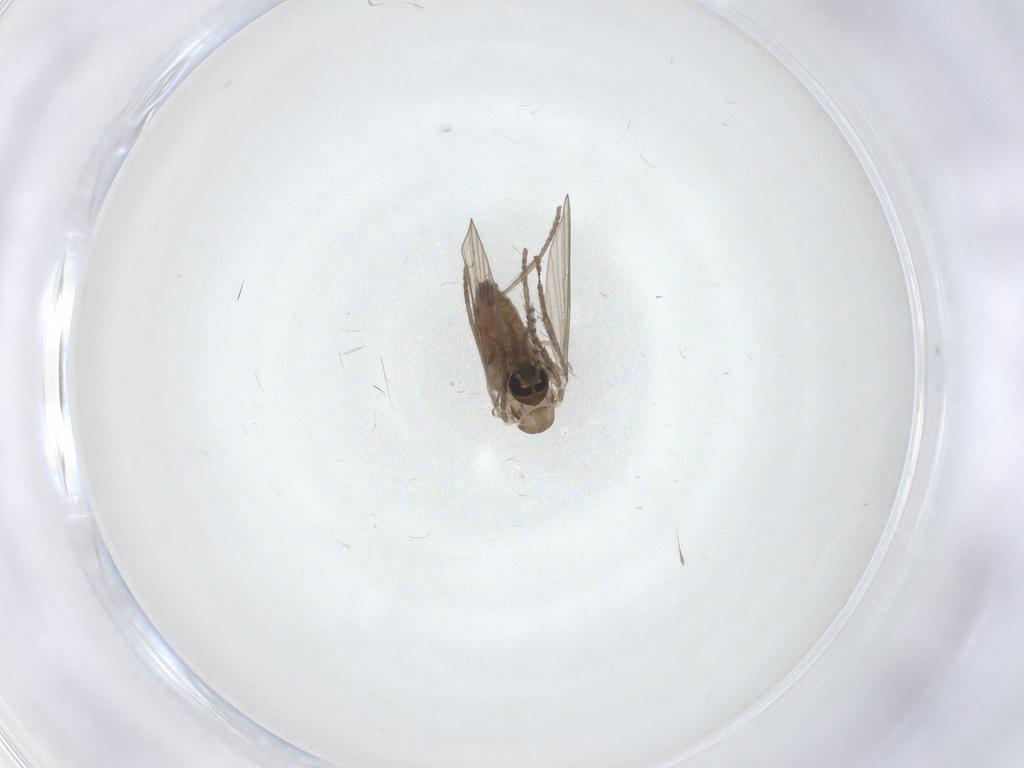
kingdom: Animalia
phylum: Arthropoda
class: Insecta
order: Diptera
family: Psychodidae
